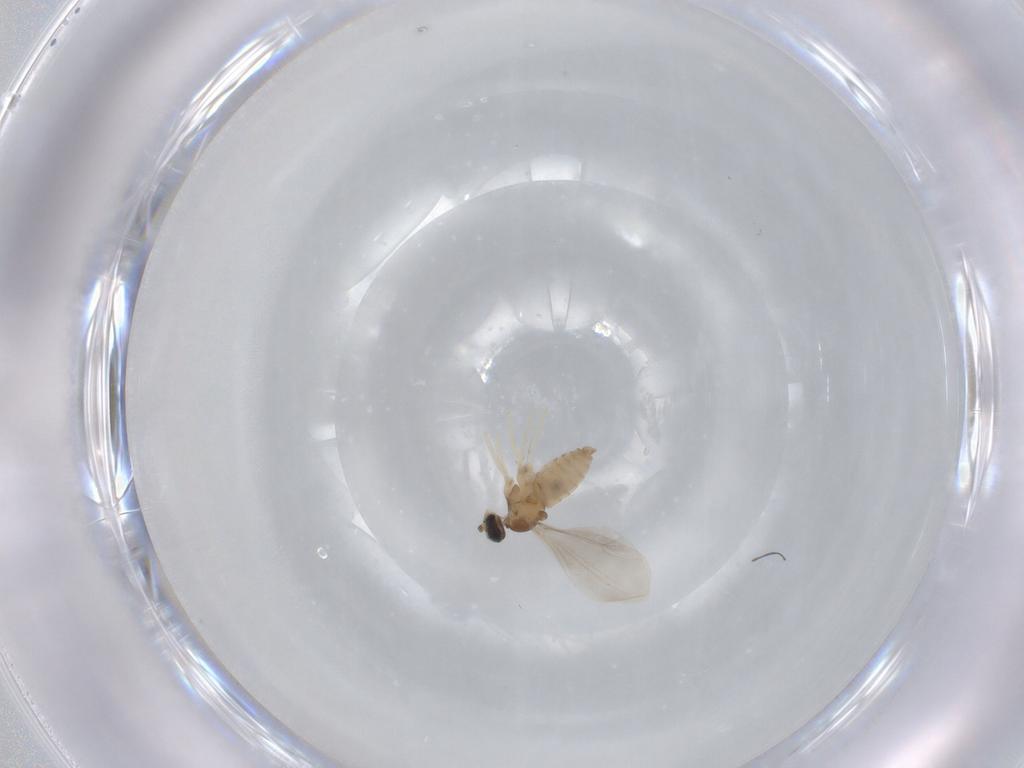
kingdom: Animalia
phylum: Arthropoda
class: Insecta
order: Diptera
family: Cecidomyiidae
